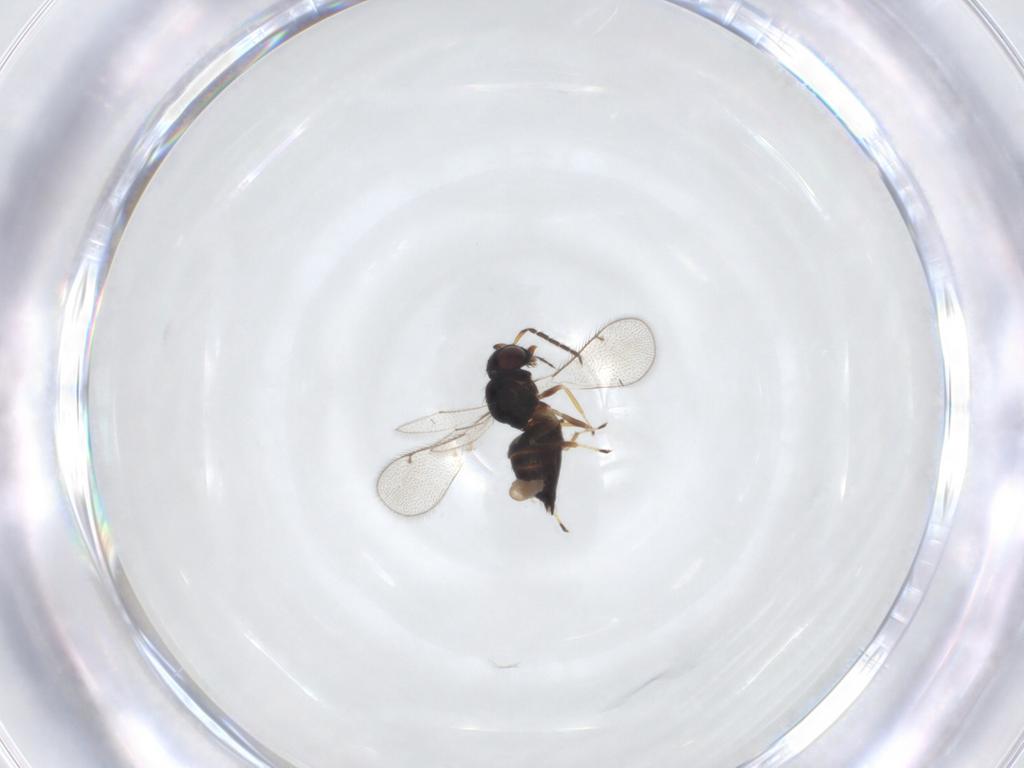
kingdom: Animalia
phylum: Arthropoda
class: Insecta
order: Hymenoptera
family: Eulophidae
